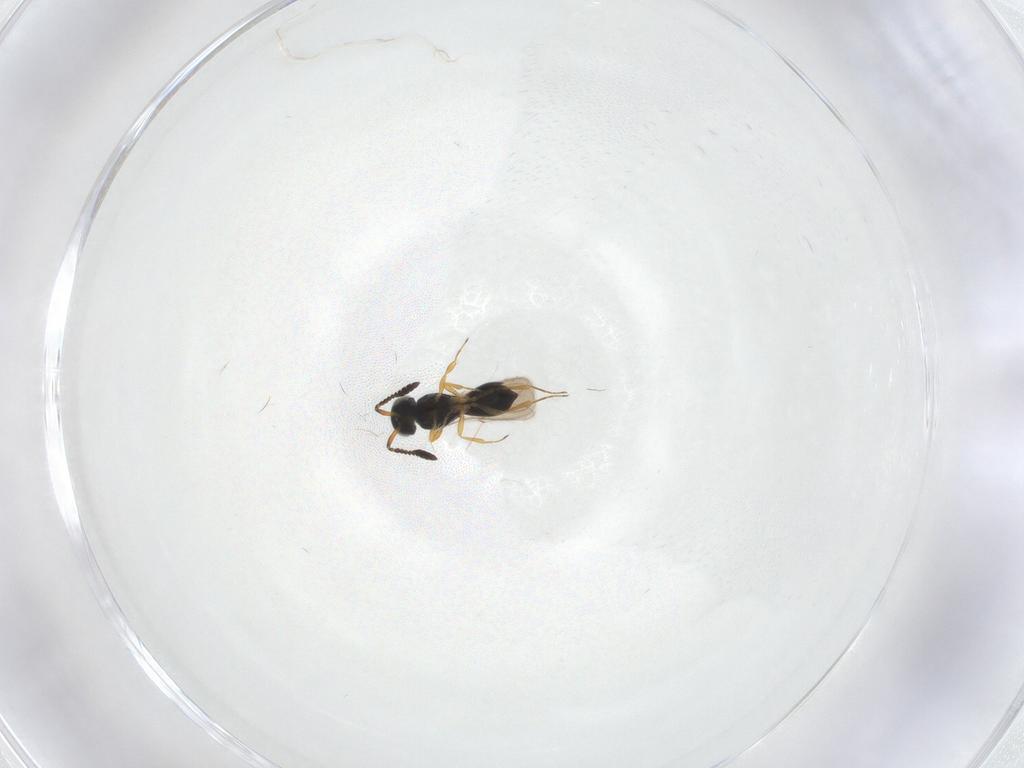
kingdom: Animalia
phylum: Arthropoda
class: Insecta
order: Hymenoptera
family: Scelionidae
